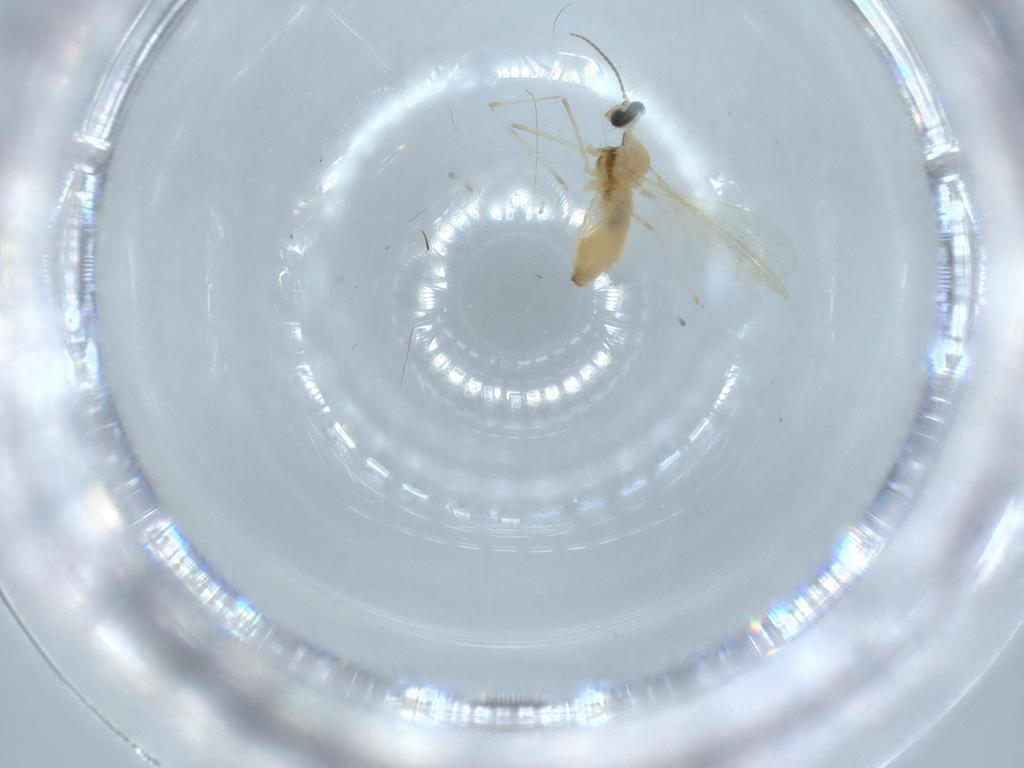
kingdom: Animalia
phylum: Arthropoda
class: Insecta
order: Diptera
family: Cecidomyiidae
